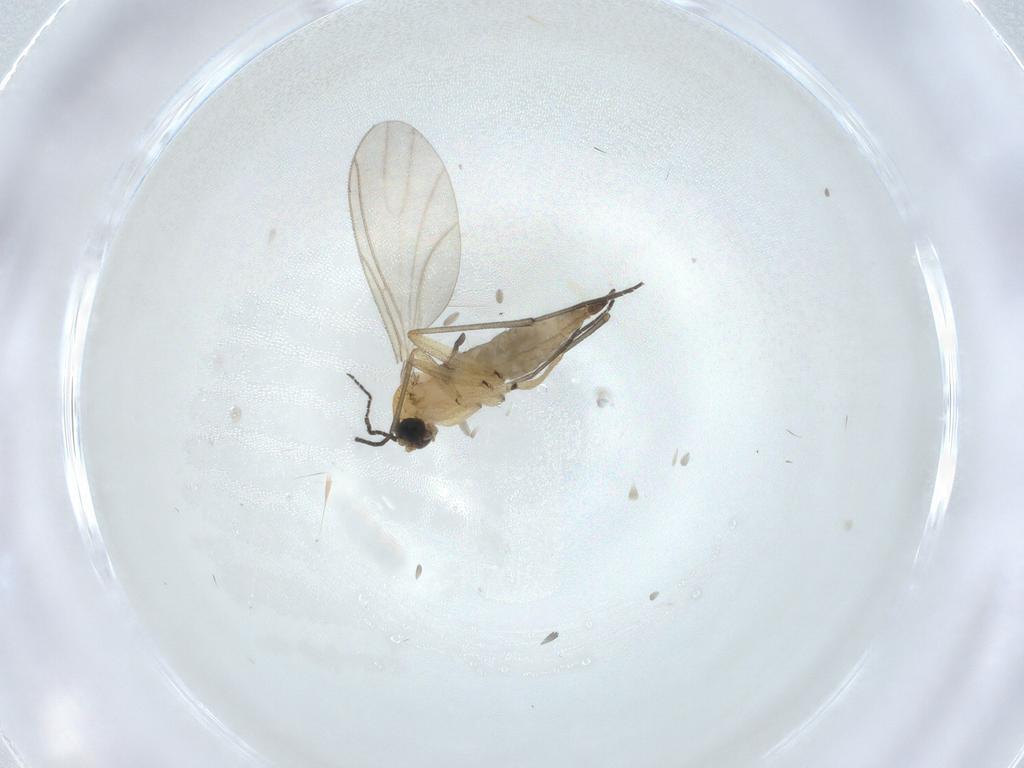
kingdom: Animalia
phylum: Arthropoda
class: Insecta
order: Diptera
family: Sciaridae
